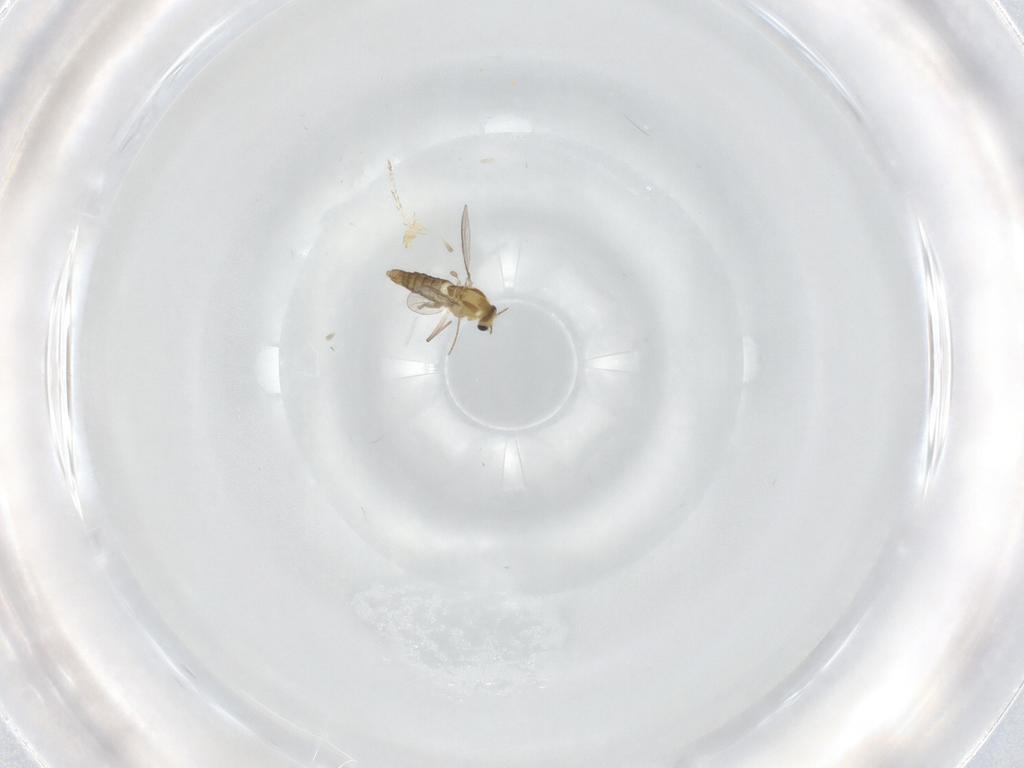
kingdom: Animalia
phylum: Arthropoda
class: Insecta
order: Diptera
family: Chironomidae
